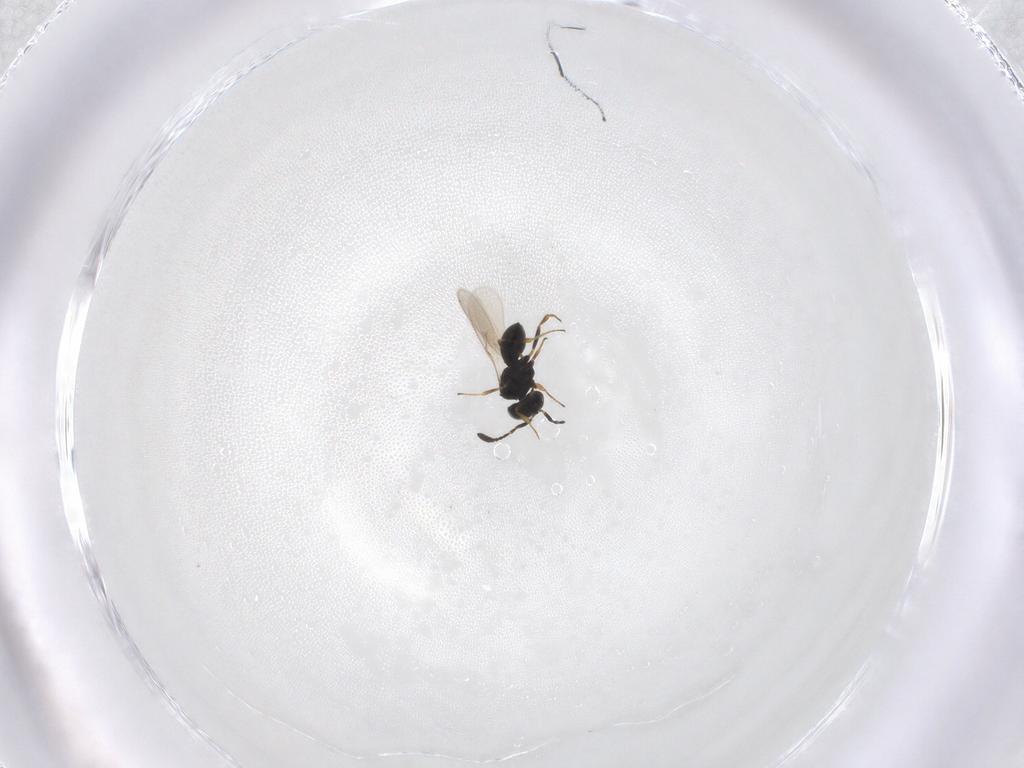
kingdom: Animalia
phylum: Arthropoda
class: Insecta
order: Hymenoptera
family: Scelionidae
